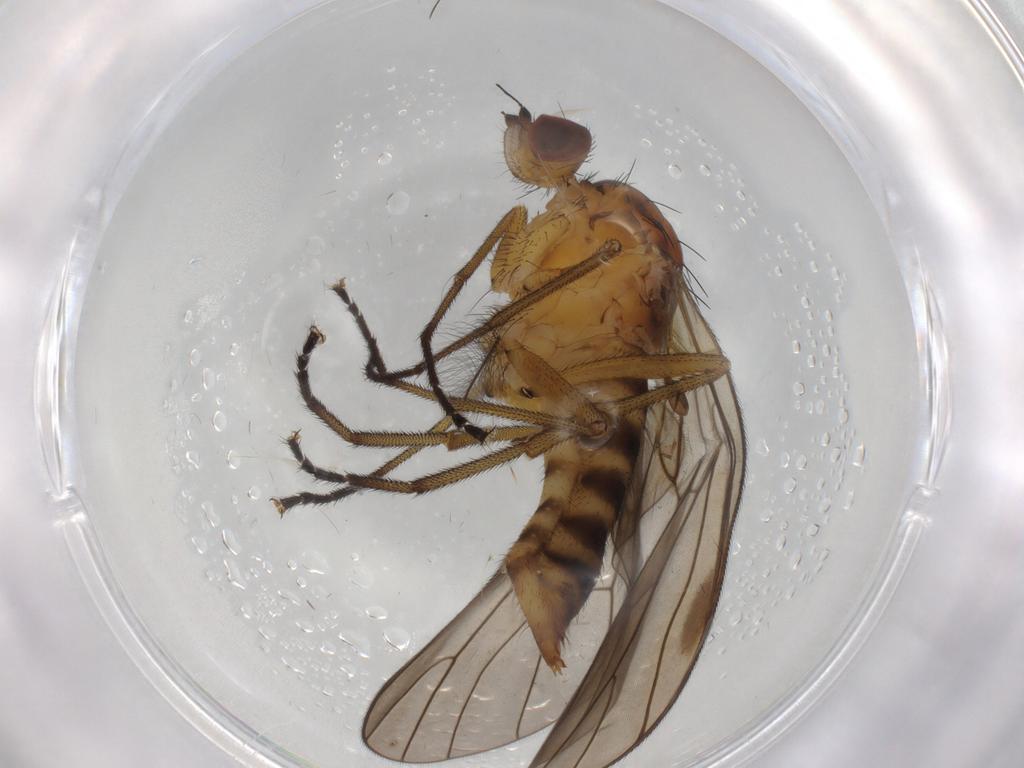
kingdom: Animalia
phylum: Arthropoda
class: Insecta
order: Diptera
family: Brachystomatidae
